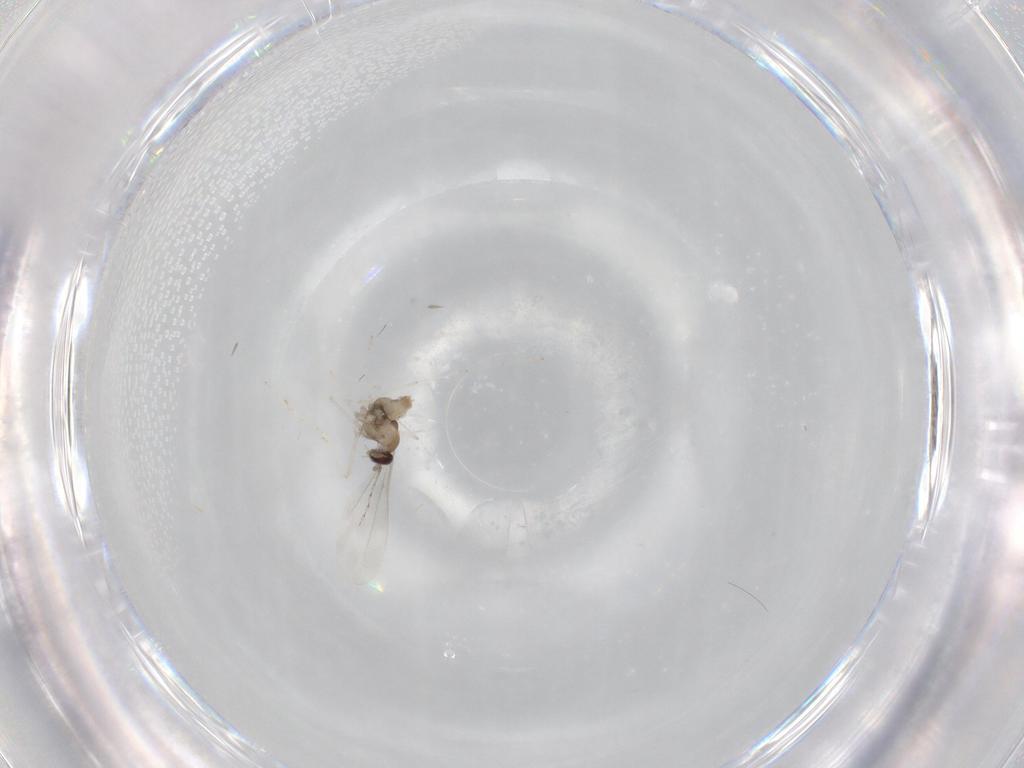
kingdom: Animalia
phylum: Arthropoda
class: Insecta
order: Diptera
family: Cecidomyiidae
